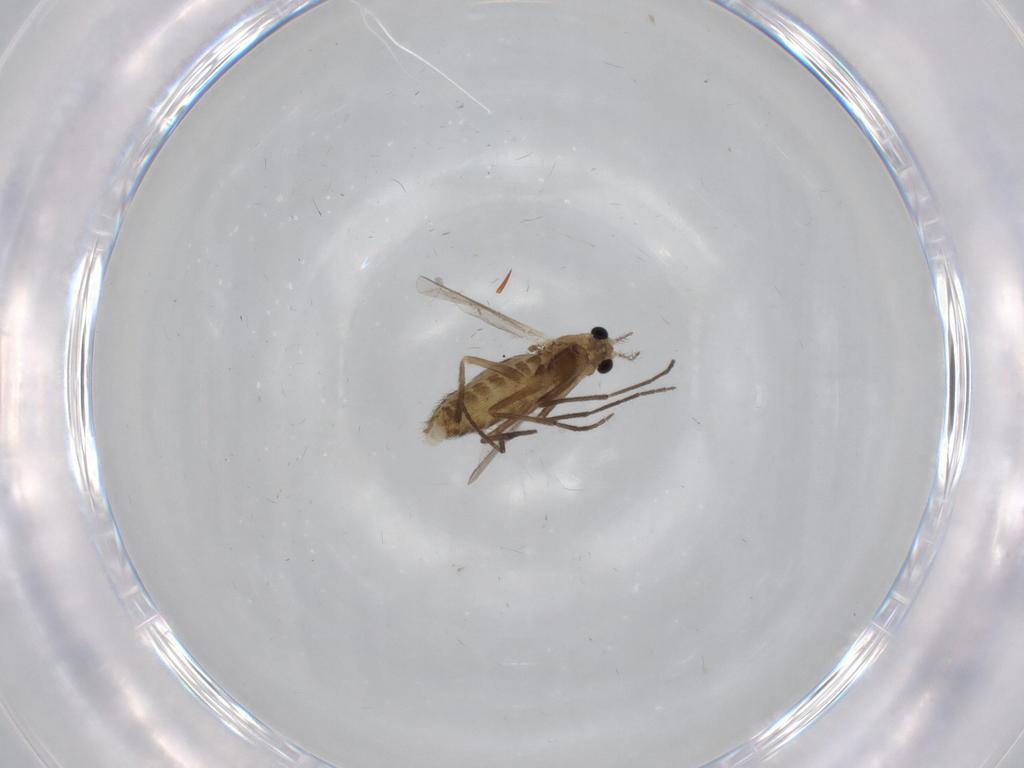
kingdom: Animalia
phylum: Arthropoda
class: Insecta
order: Diptera
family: Chironomidae
